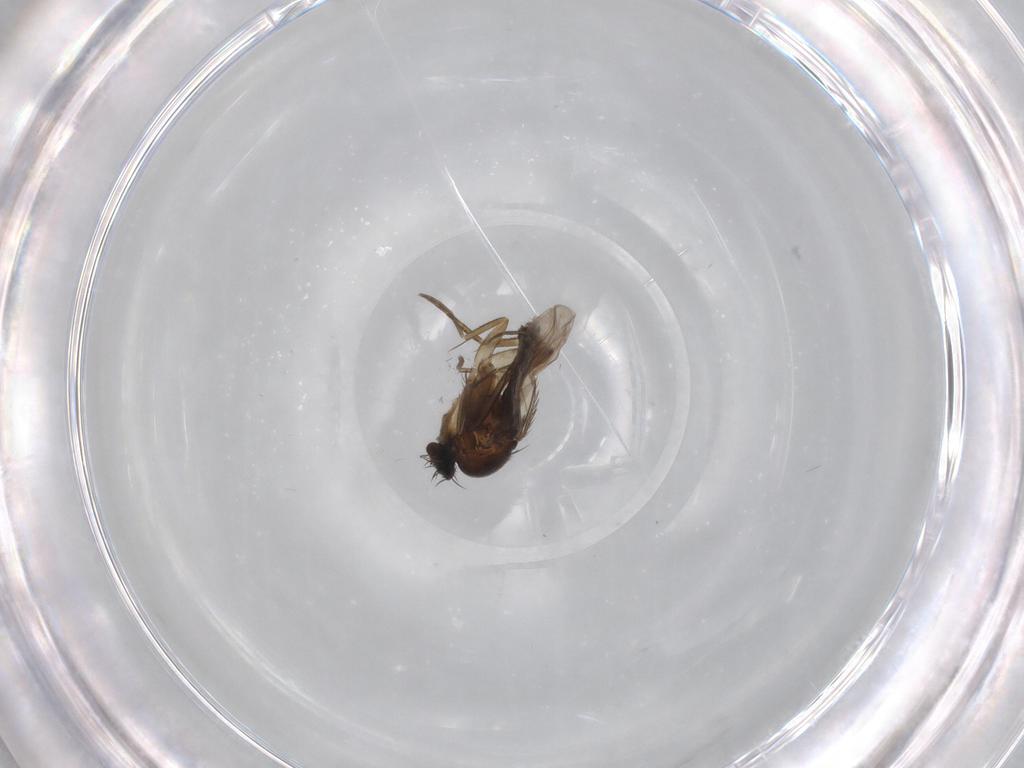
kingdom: Animalia
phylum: Arthropoda
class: Insecta
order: Diptera
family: Phoridae
